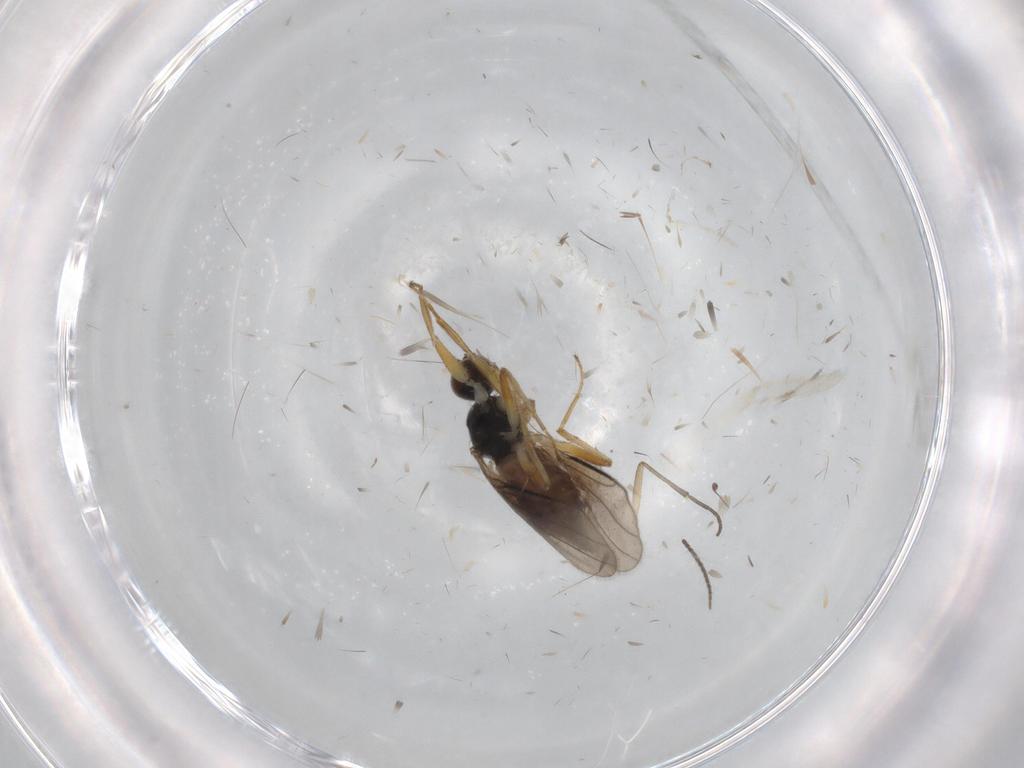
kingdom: Animalia
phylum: Arthropoda
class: Insecta
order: Diptera
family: Hybotidae
